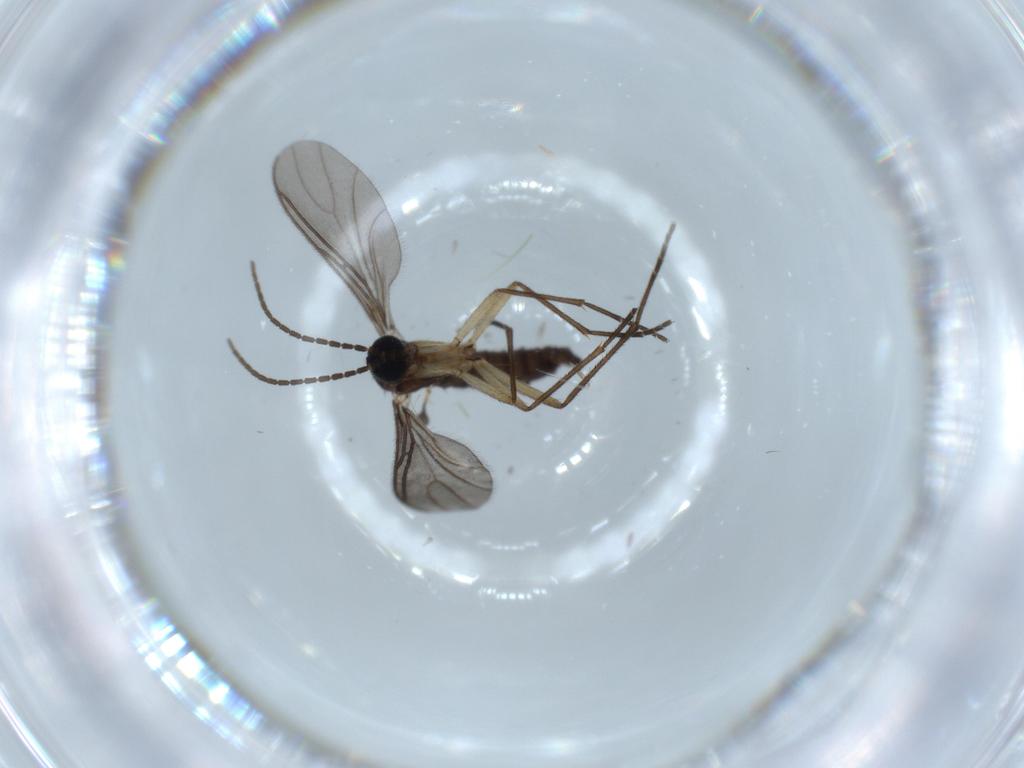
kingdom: Animalia
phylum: Arthropoda
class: Insecta
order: Diptera
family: Sciaridae
